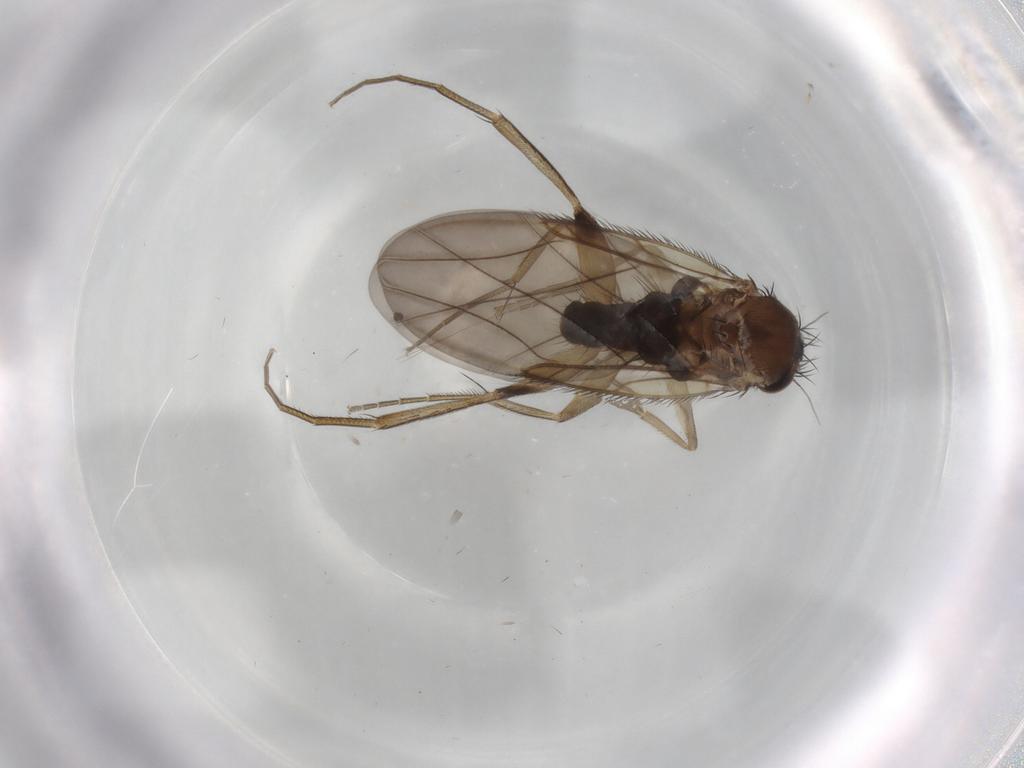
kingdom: Animalia
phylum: Arthropoda
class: Insecta
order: Diptera
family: Phoridae
